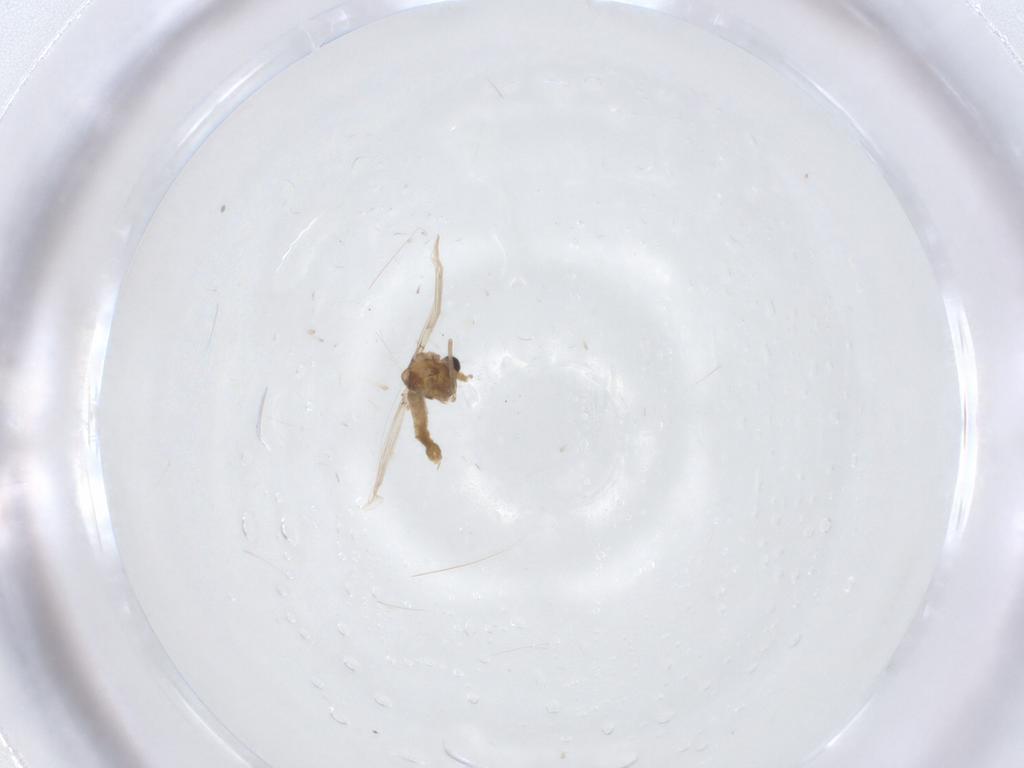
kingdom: Animalia
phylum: Arthropoda
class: Insecta
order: Diptera
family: Chironomidae
